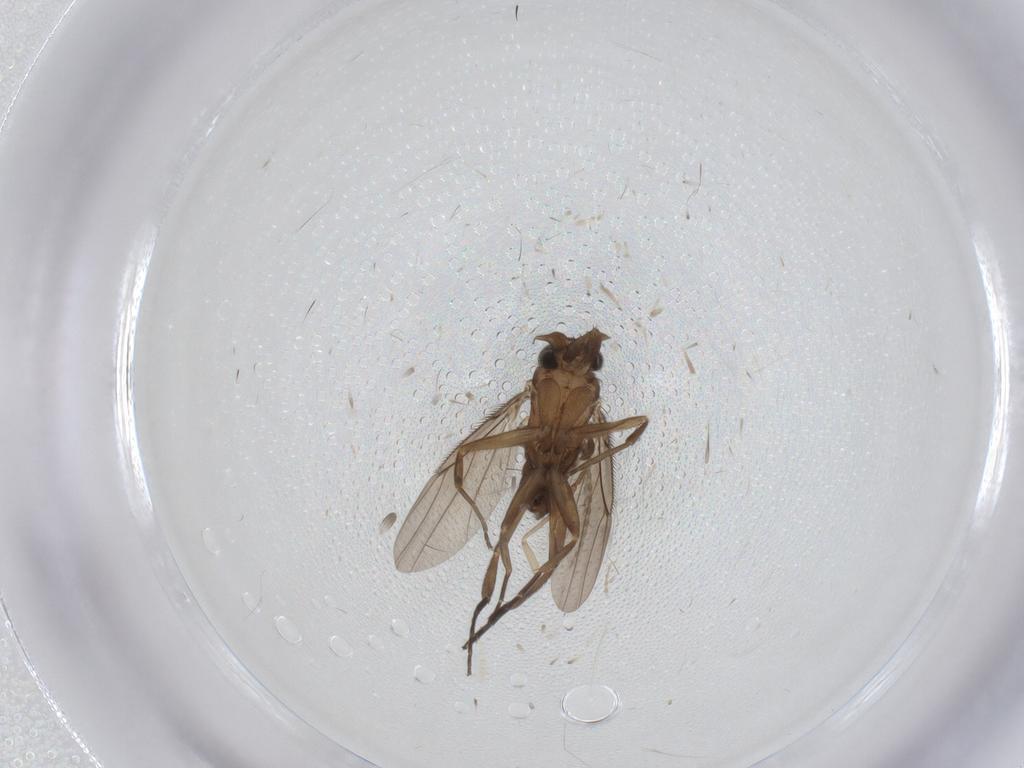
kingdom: Animalia
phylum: Arthropoda
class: Insecta
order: Diptera
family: Phoridae
